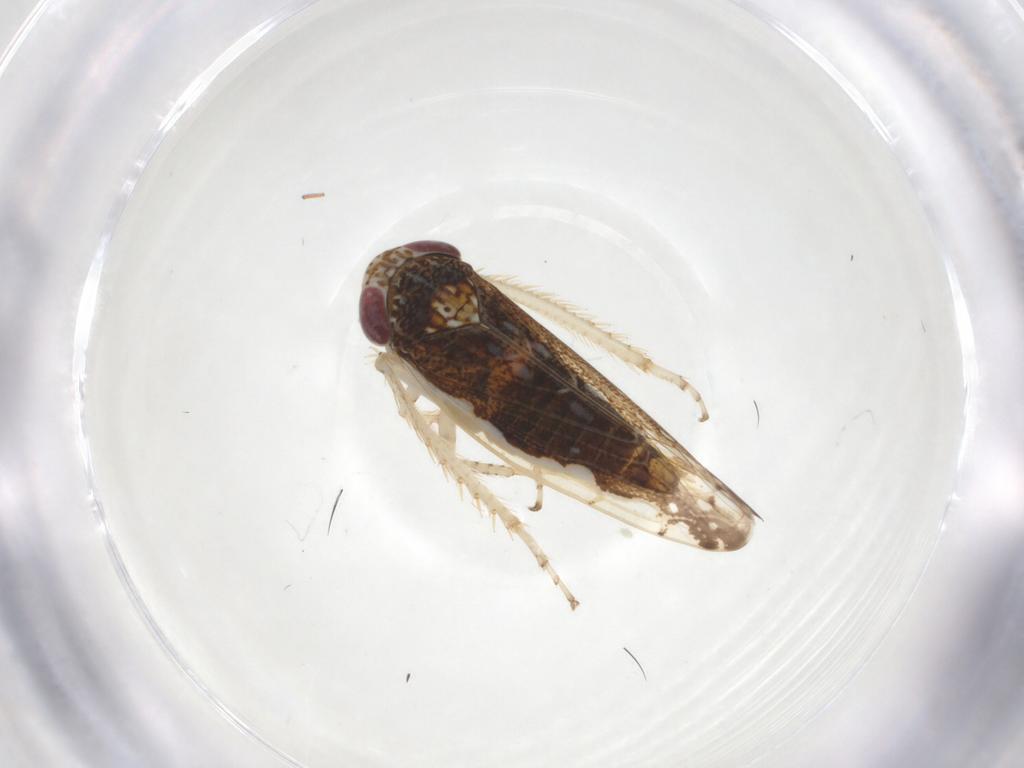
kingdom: Animalia
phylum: Arthropoda
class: Insecta
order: Hemiptera
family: Cicadellidae
